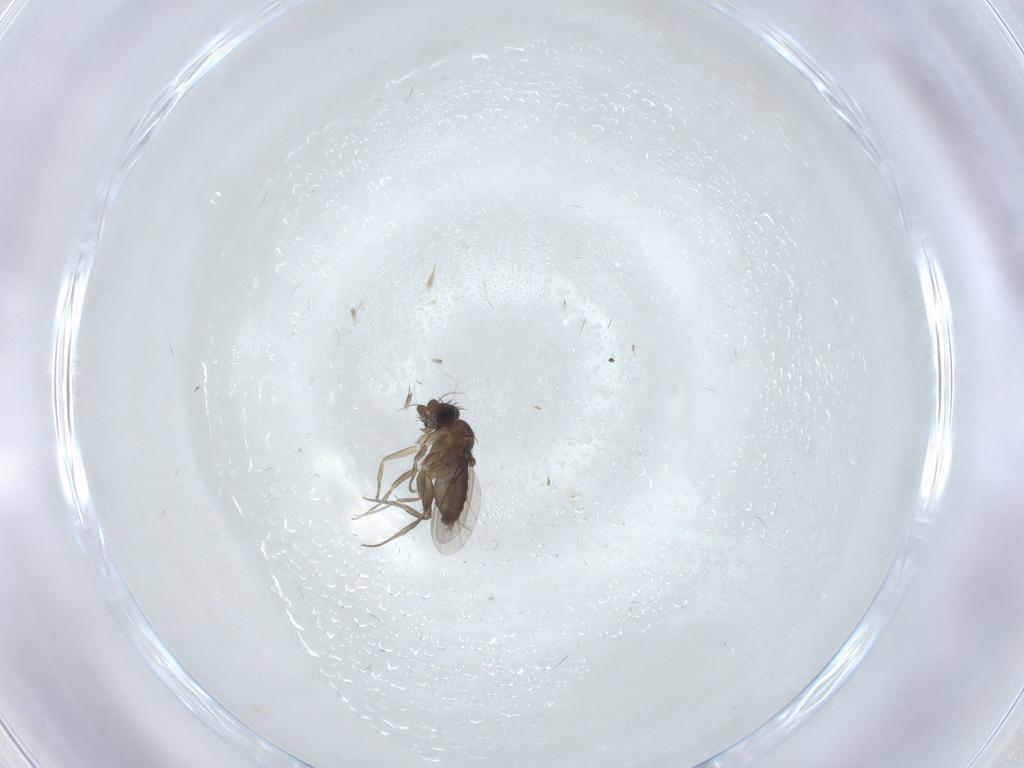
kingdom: Animalia
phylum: Arthropoda
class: Insecta
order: Diptera
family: Phoridae
